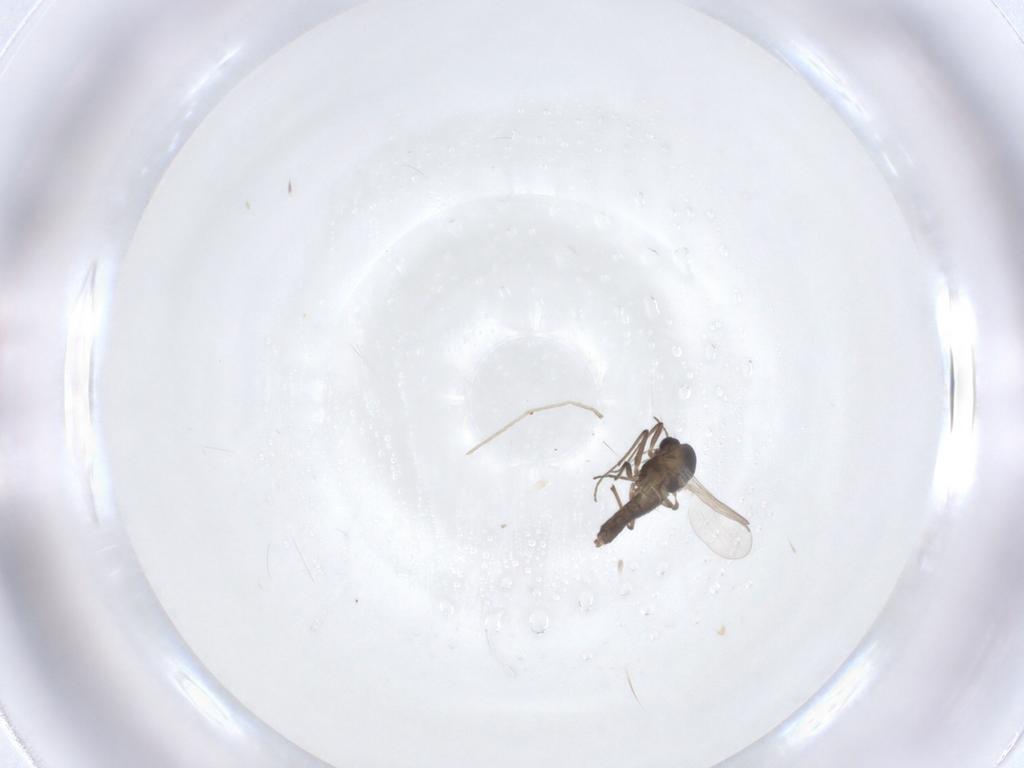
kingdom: Animalia
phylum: Arthropoda
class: Insecta
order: Diptera
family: Chironomidae
